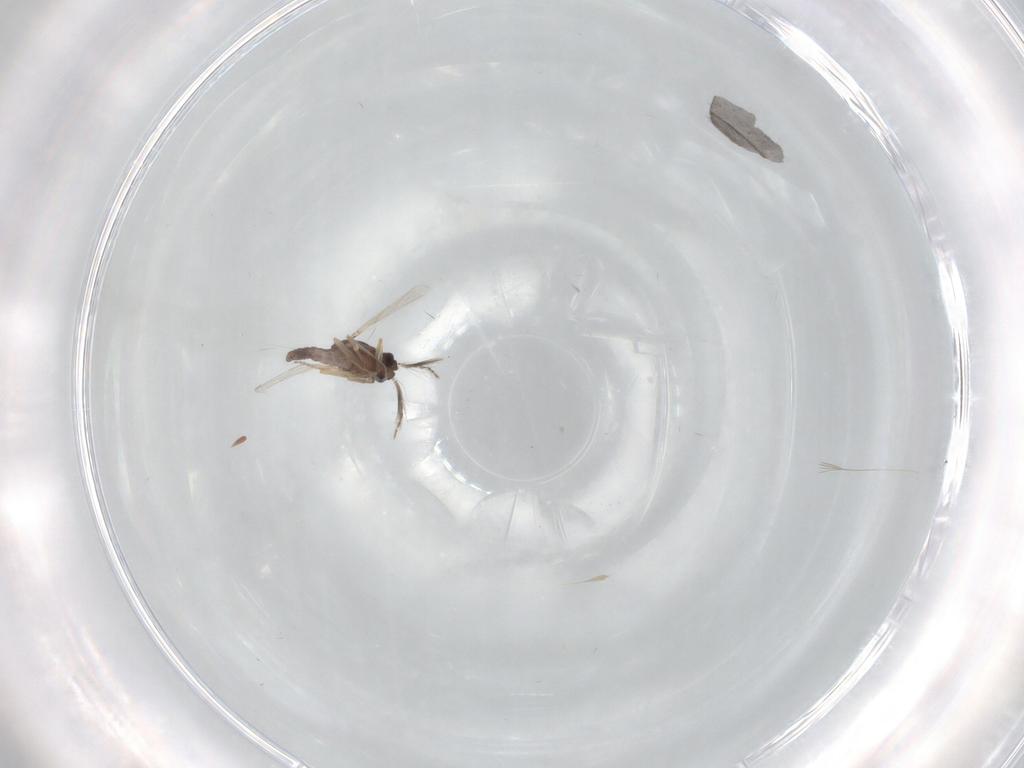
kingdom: Animalia
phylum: Arthropoda
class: Insecta
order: Diptera
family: Ceratopogonidae
